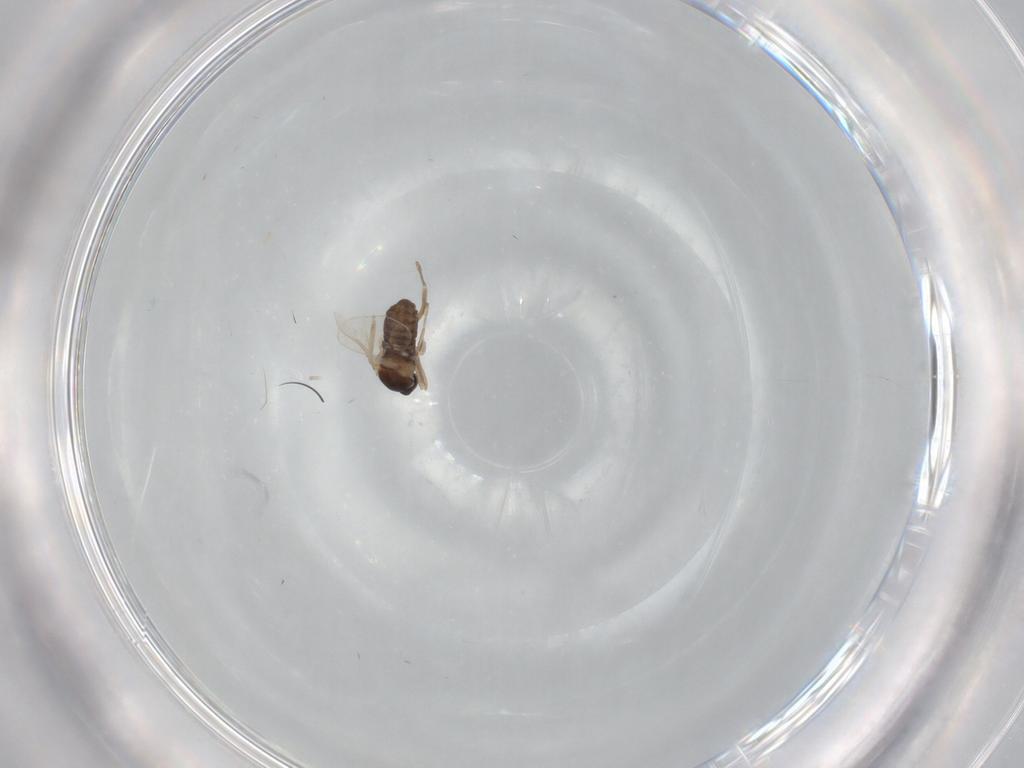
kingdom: Animalia
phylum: Arthropoda
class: Insecta
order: Diptera
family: Cecidomyiidae
